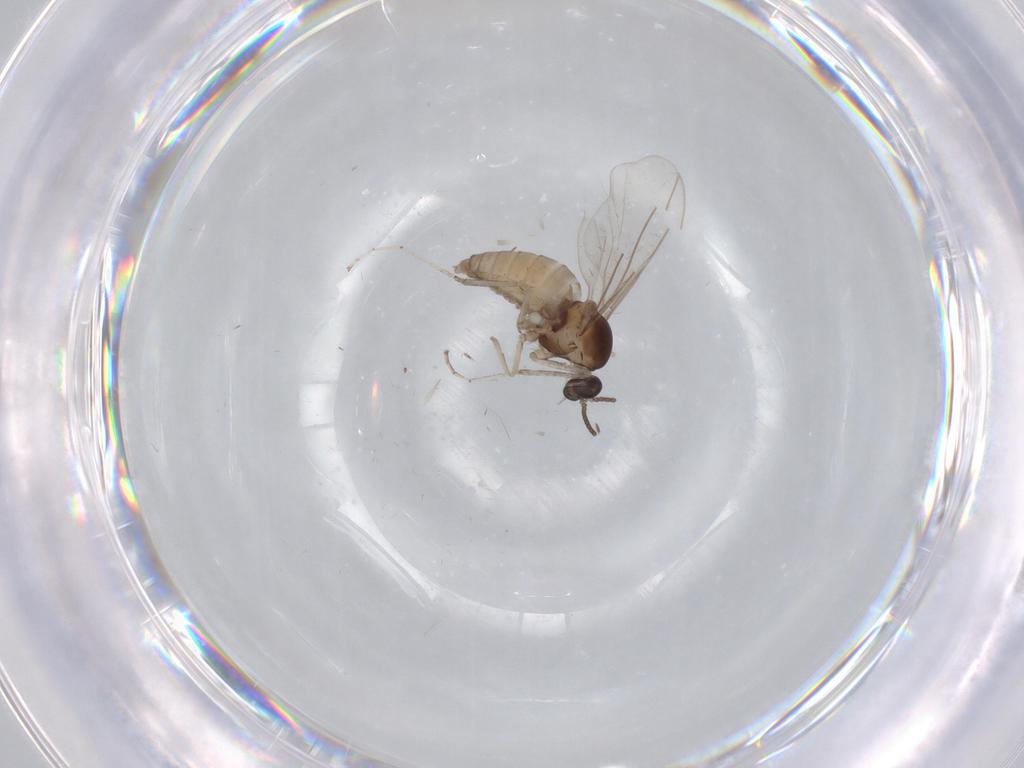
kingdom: Animalia
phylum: Arthropoda
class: Insecta
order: Diptera
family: Cecidomyiidae
